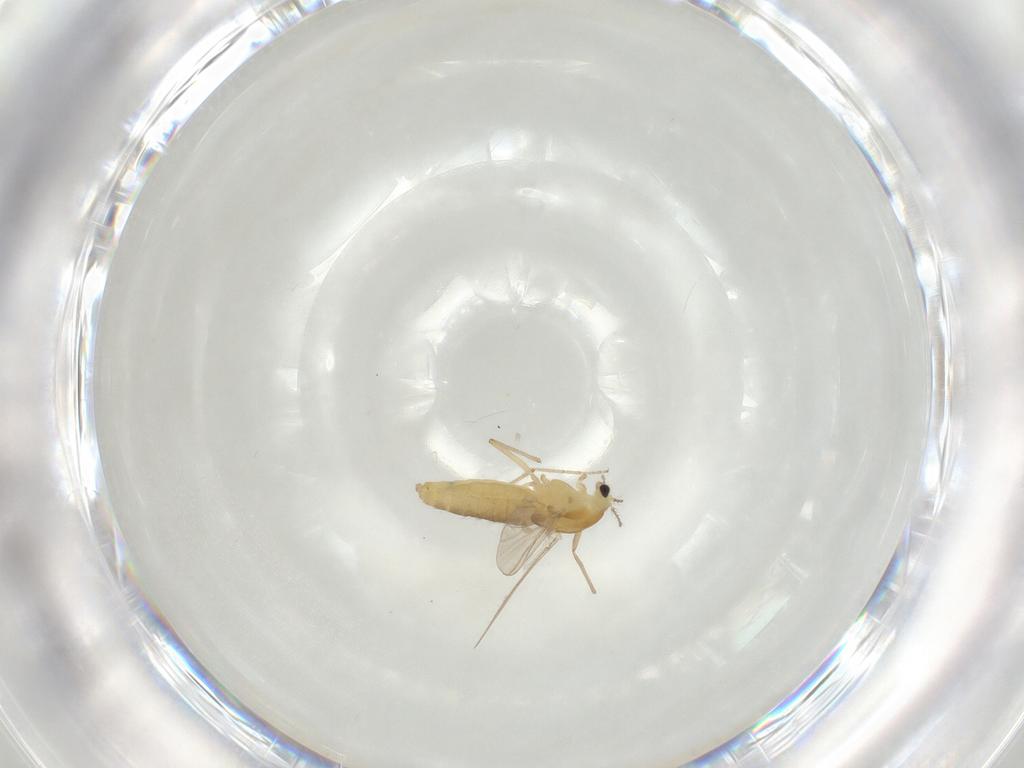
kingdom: Animalia
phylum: Arthropoda
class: Insecta
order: Diptera
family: Chironomidae
